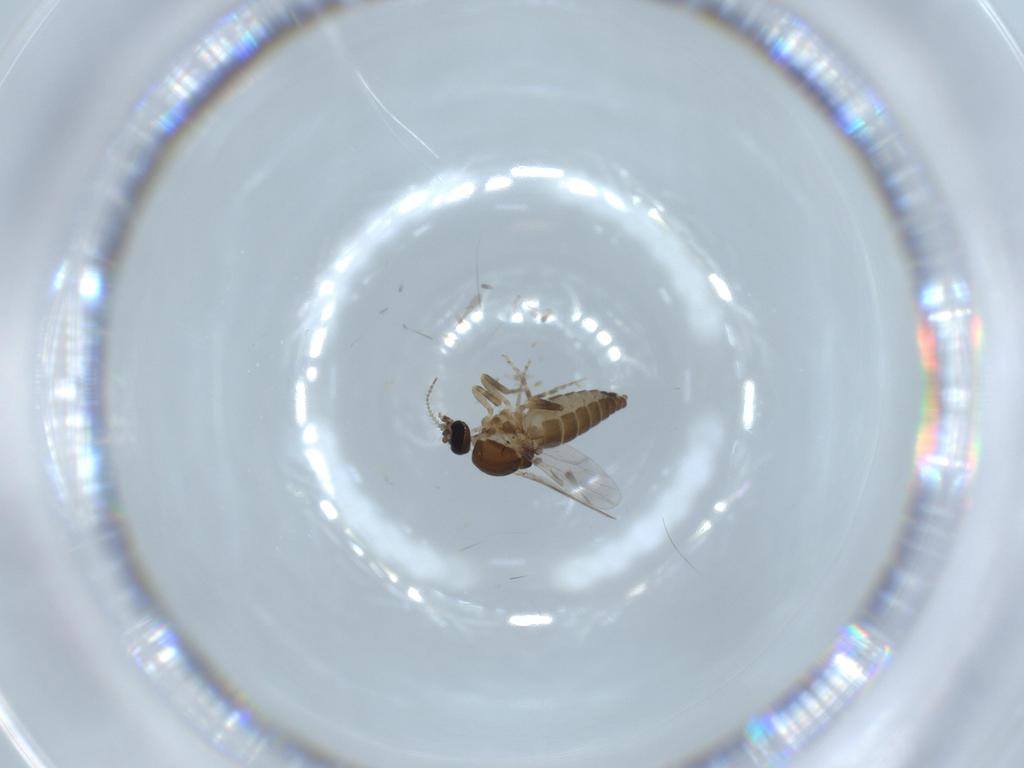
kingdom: Animalia
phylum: Arthropoda
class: Insecta
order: Diptera
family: Ceratopogonidae
